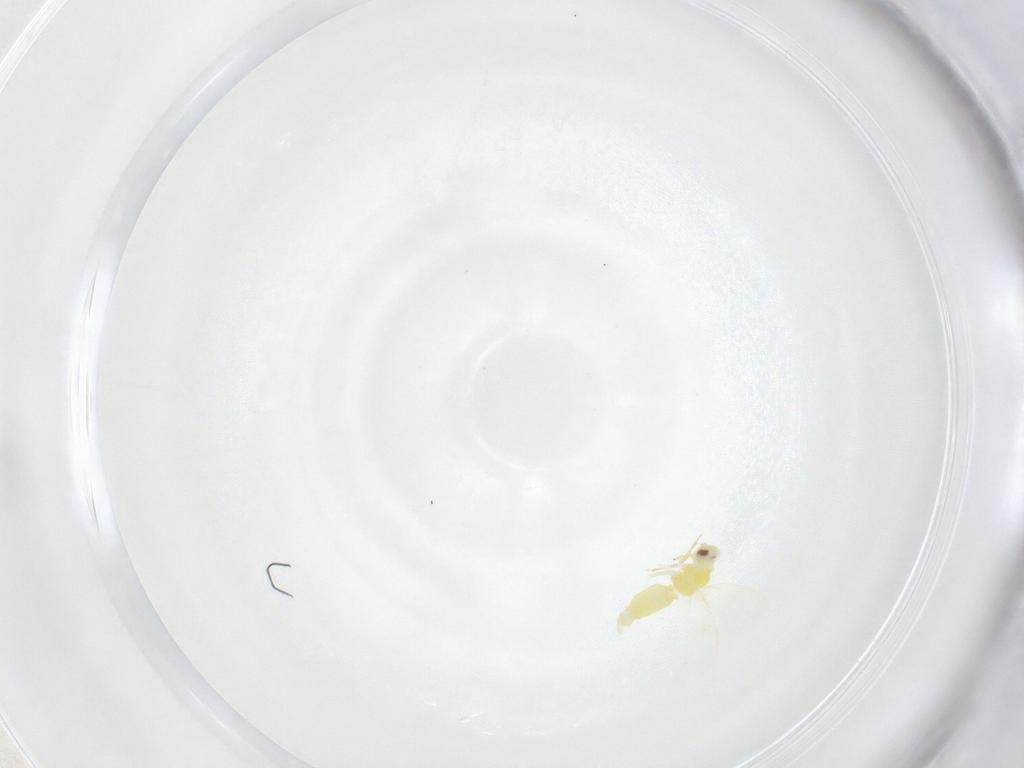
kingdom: Animalia
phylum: Arthropoda
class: Insecta
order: Hemiptera
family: Aleyrodidae
